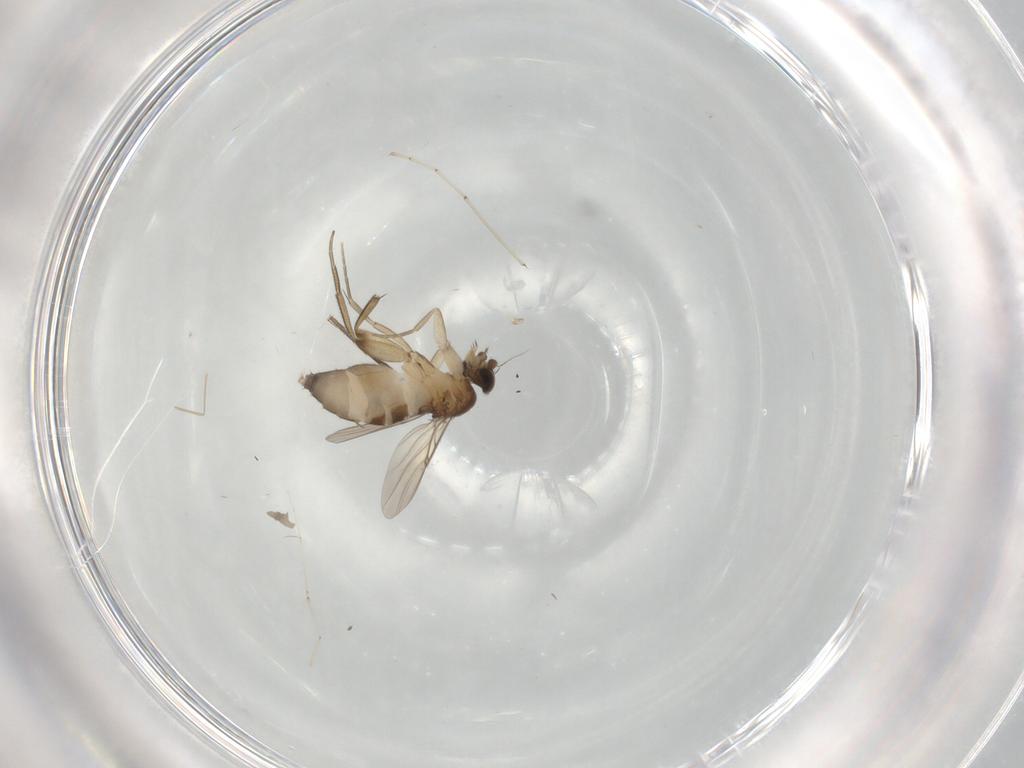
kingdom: Animalia
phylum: Arthropoda
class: Insecta
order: Diptera
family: Phoridae
